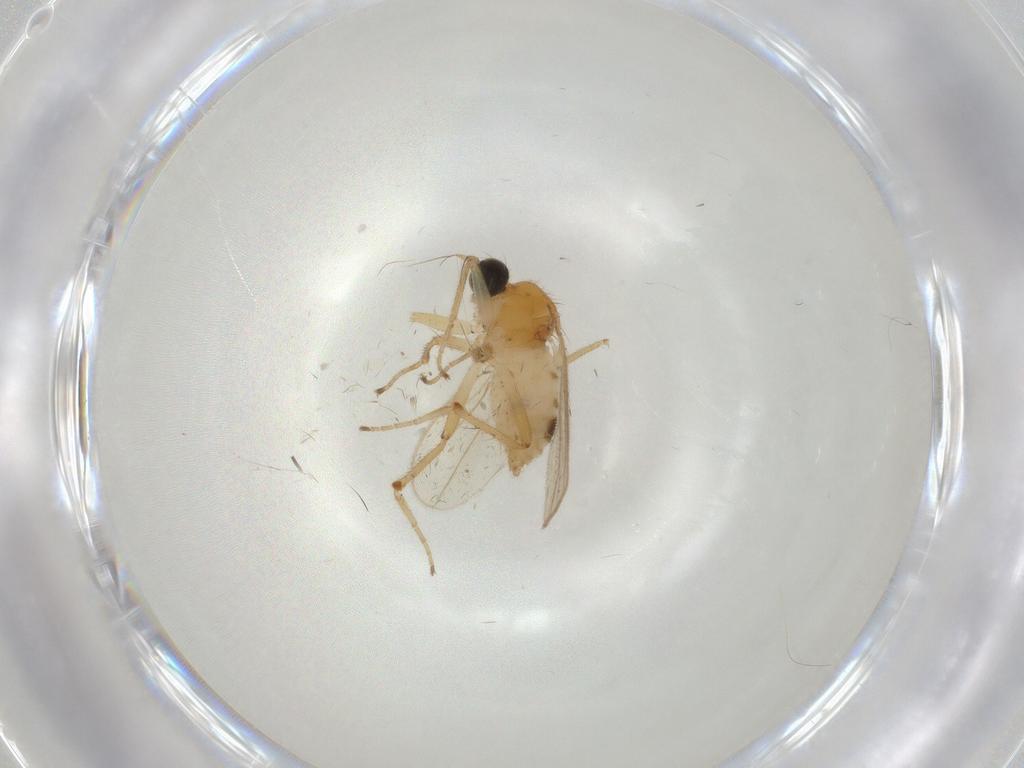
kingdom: Animalia
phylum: Arthropoda
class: Insecta
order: Diptera
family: Hybotidae
